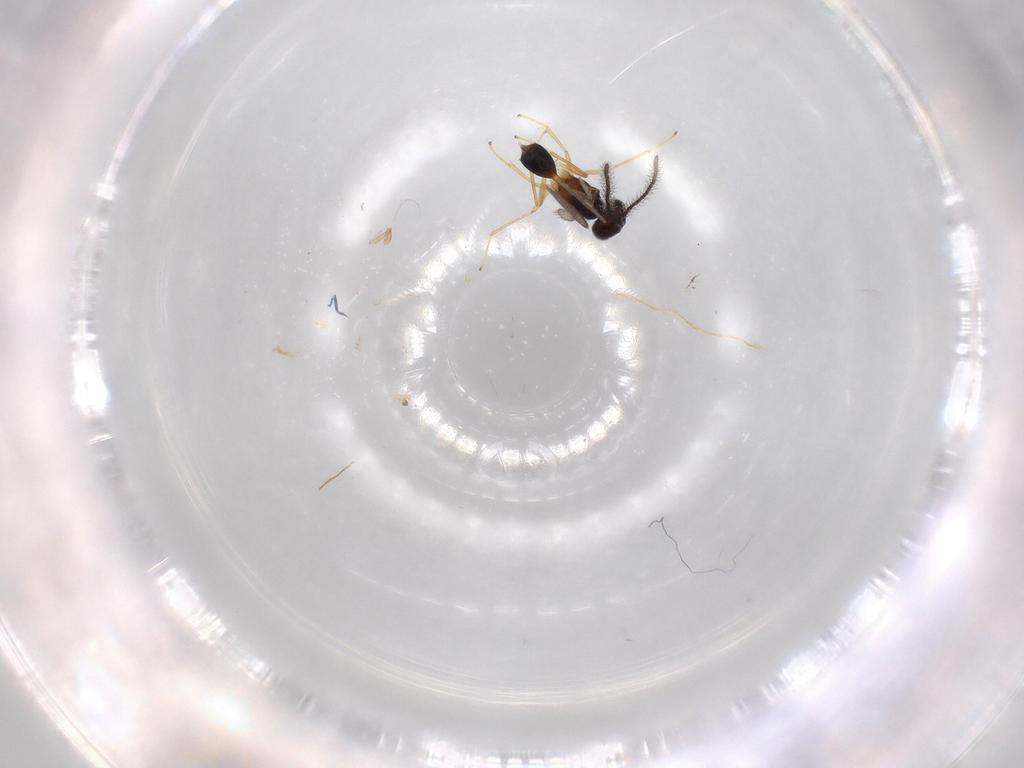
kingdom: Animalia
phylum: Arthropoda
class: Insecta
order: Hymenoptera
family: Diparidae
